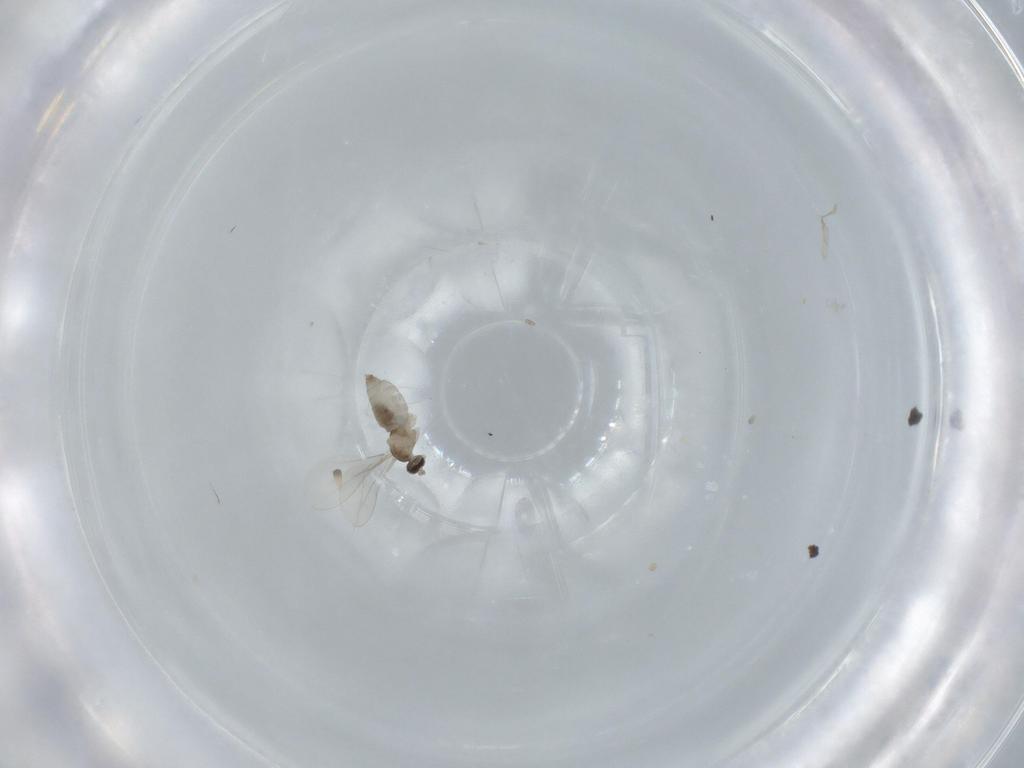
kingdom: Animalia
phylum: Arthropoda
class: Insecta
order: Diptera
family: Cecidomyiidae
